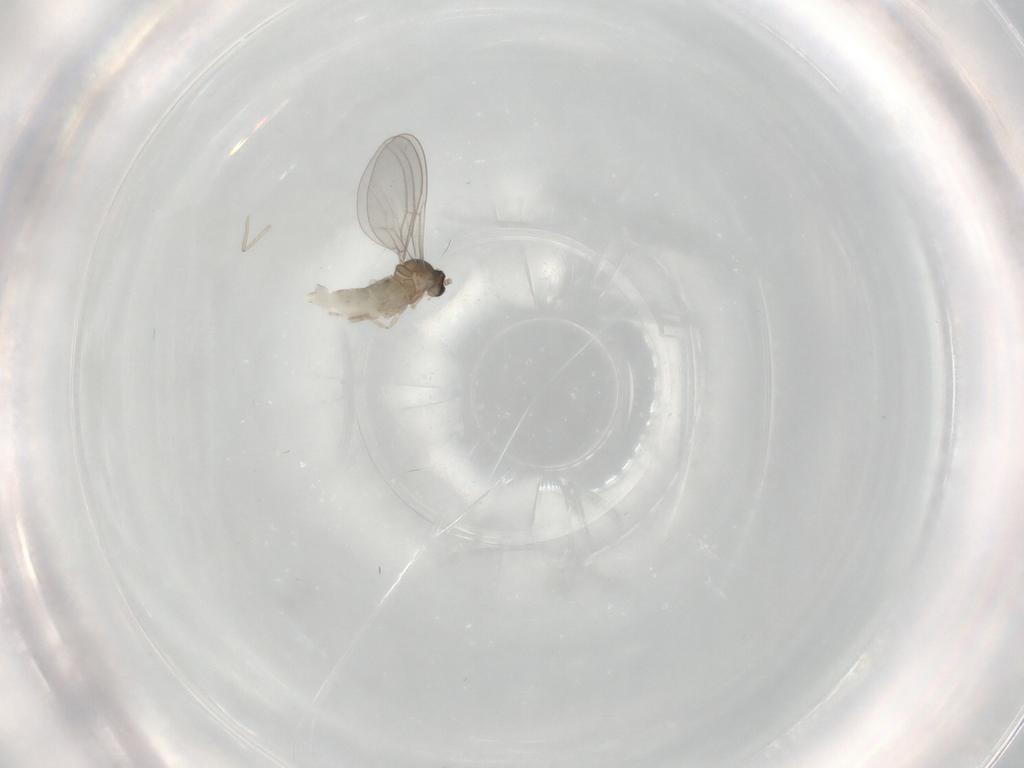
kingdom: Animalia
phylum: Arthropoda
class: Insecta
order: Diptera
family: Cecidomyiidae
